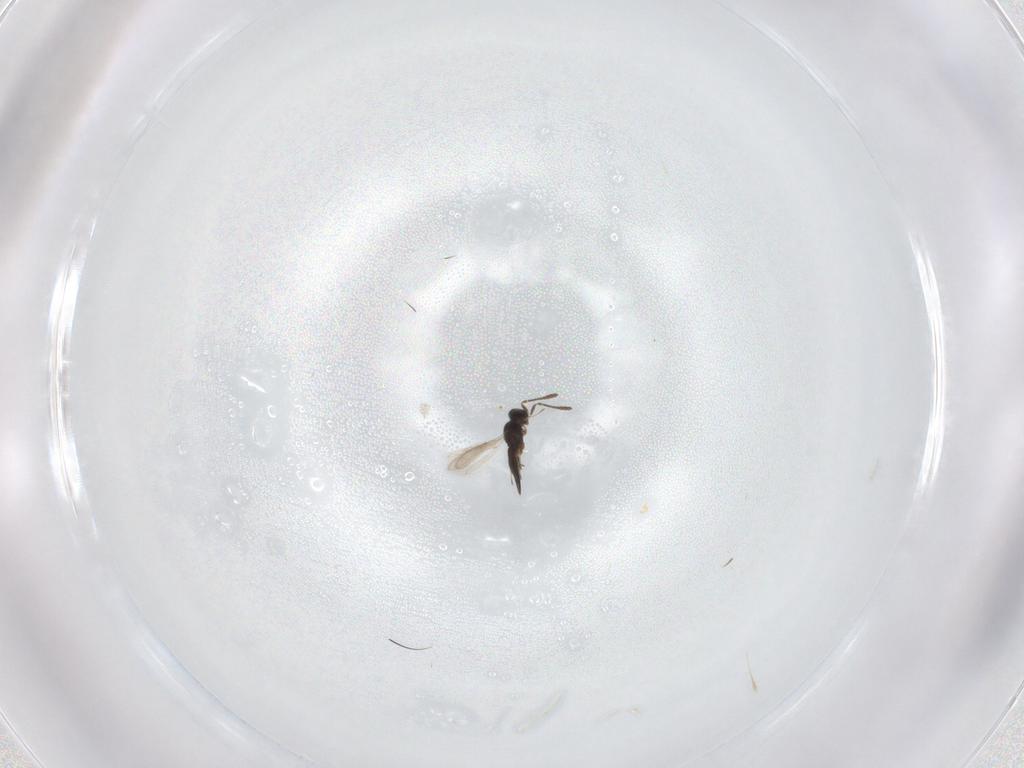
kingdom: Animalia
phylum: Arthropoda
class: Insecta
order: Hymenoptera
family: Scelionidae
